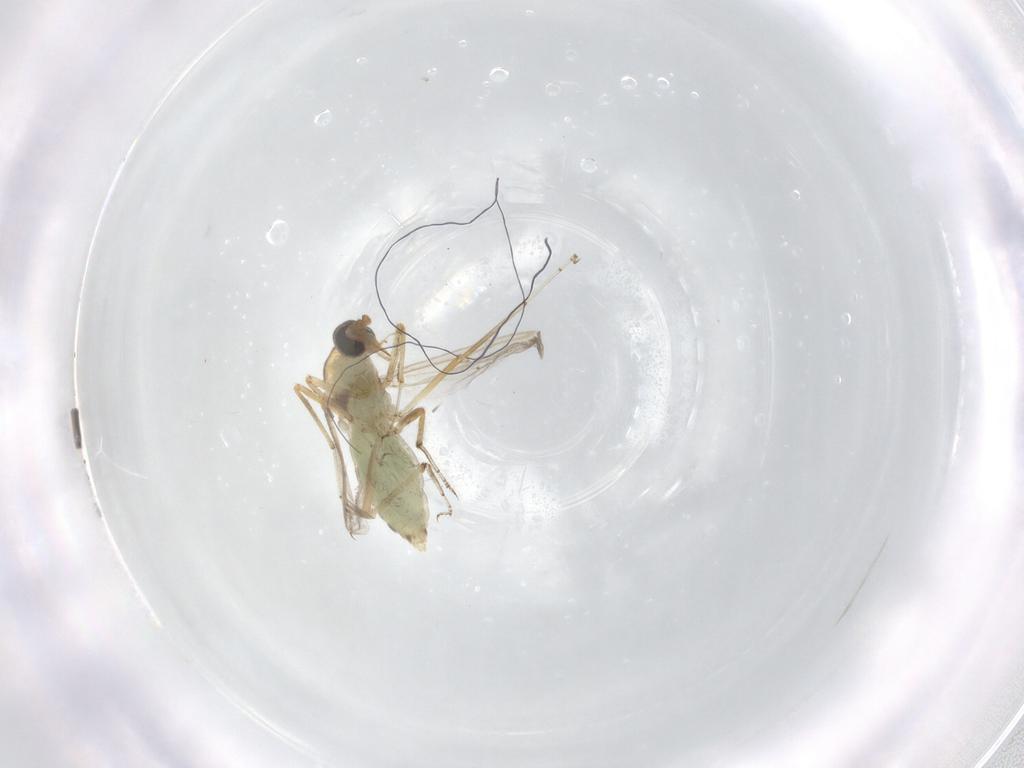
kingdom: Animalia
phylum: Arthropoda
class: Insecta
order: Diptera
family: Ceratopogonidae
